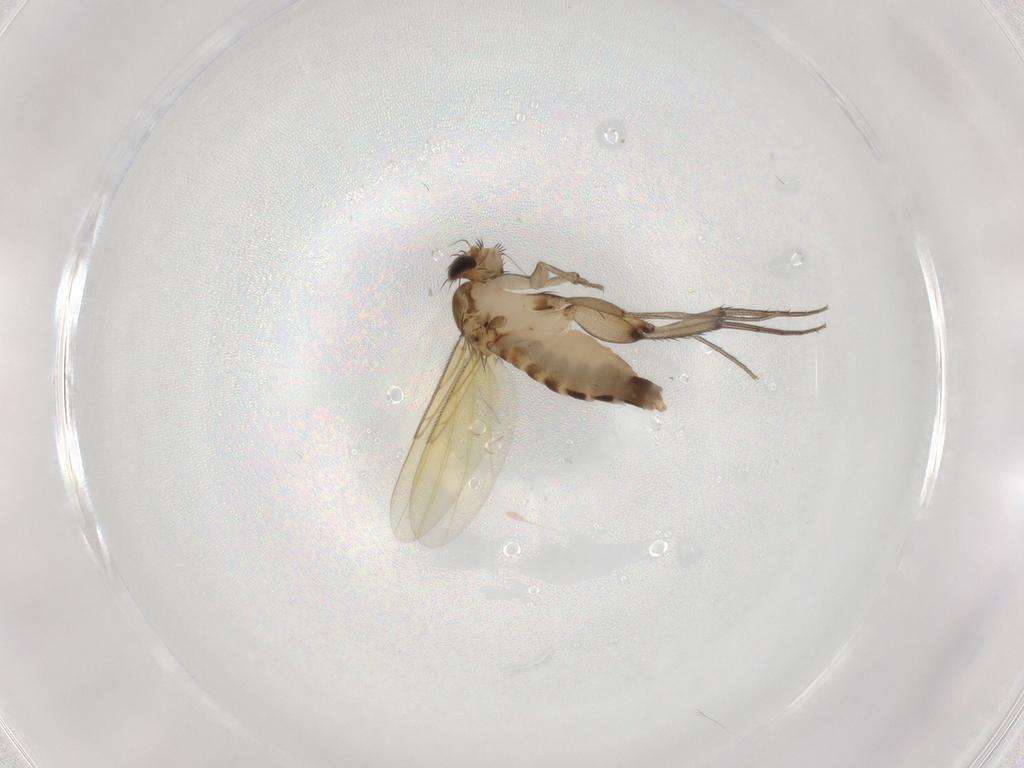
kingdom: Animalia
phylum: Arthropoda
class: Insecta
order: Diptera
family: Phoridae
